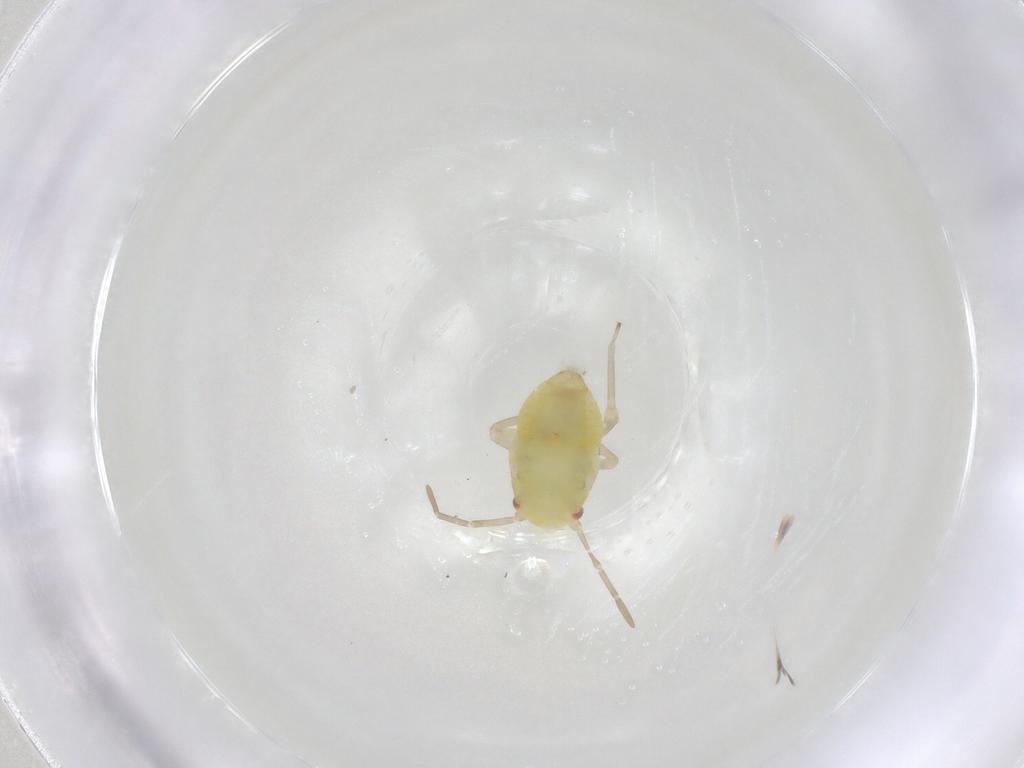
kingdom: Animalia
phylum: Arthropoda
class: Insecta
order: Hemiptera
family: Miridae
